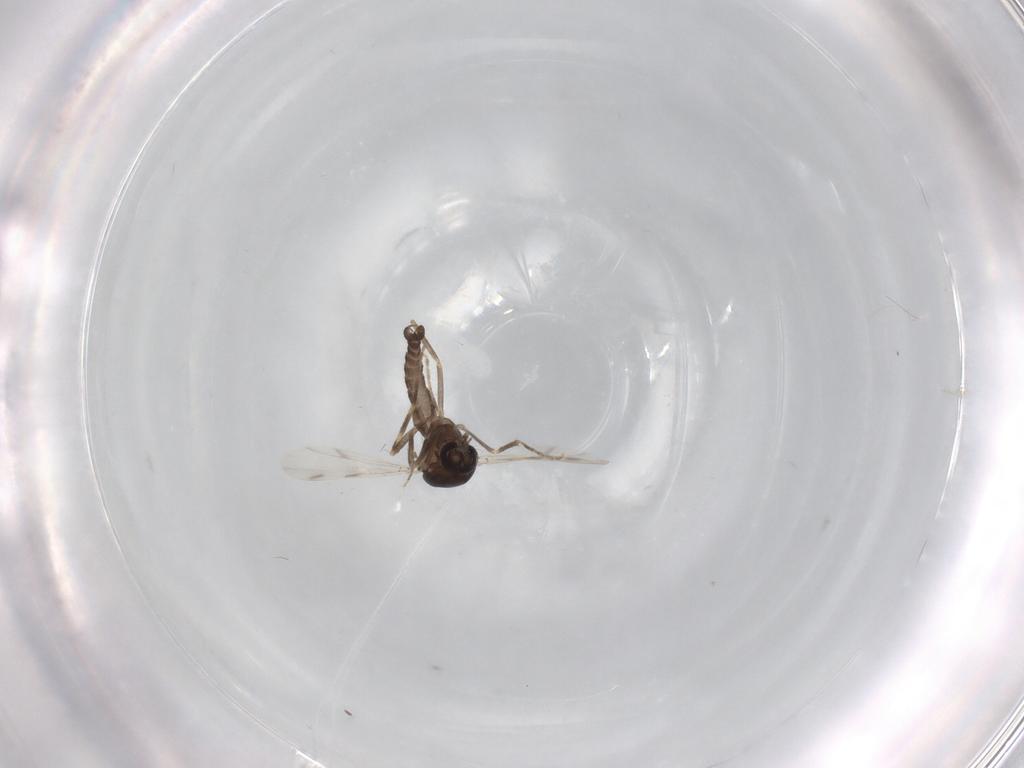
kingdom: Animalia
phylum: Arthropoda
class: Insecta
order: Diptera
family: Ceratopogonidae
